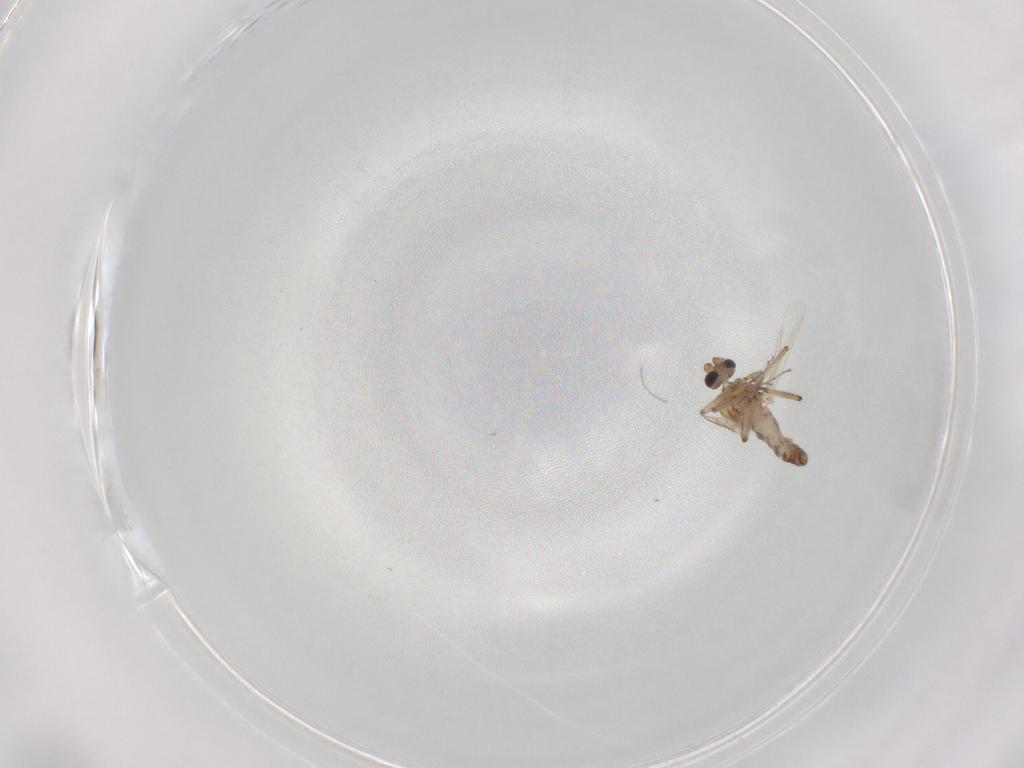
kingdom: Animalia
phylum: Arthropoda
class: Insecta
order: Diptera
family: Ceratopogonidae
